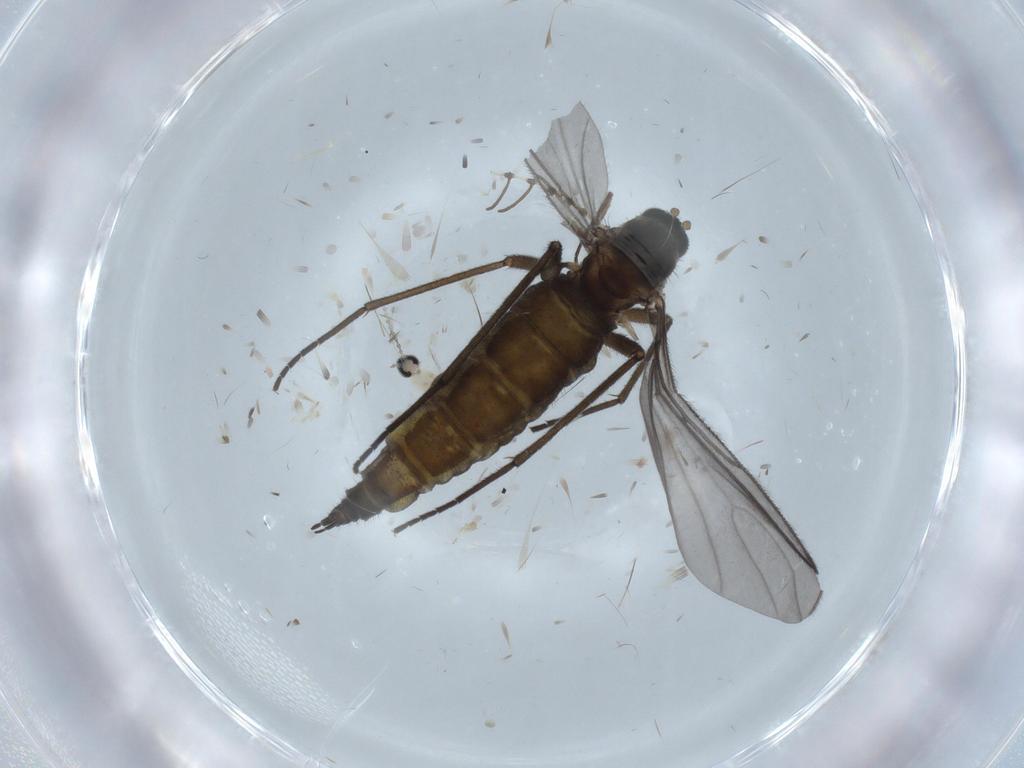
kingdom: Animalia
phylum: Arthropoda
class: Insecta
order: Diptera
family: Sciaridae
